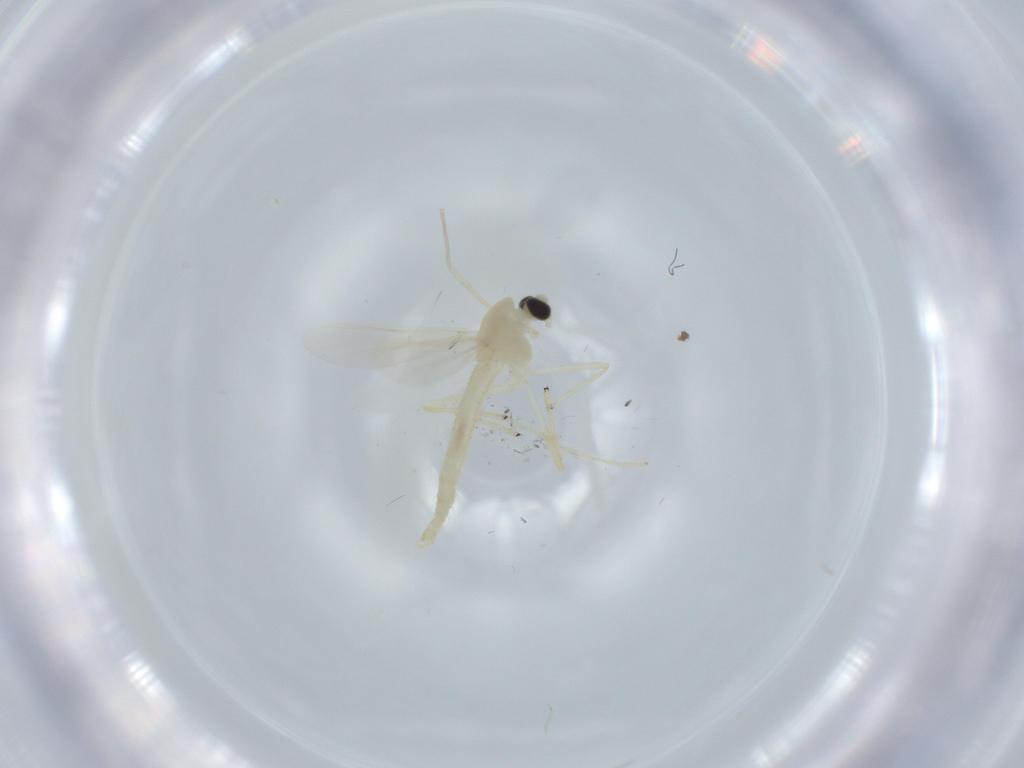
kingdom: Animalia
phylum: Arthropoda
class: Insecta
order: Diptera
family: Chironomidae
